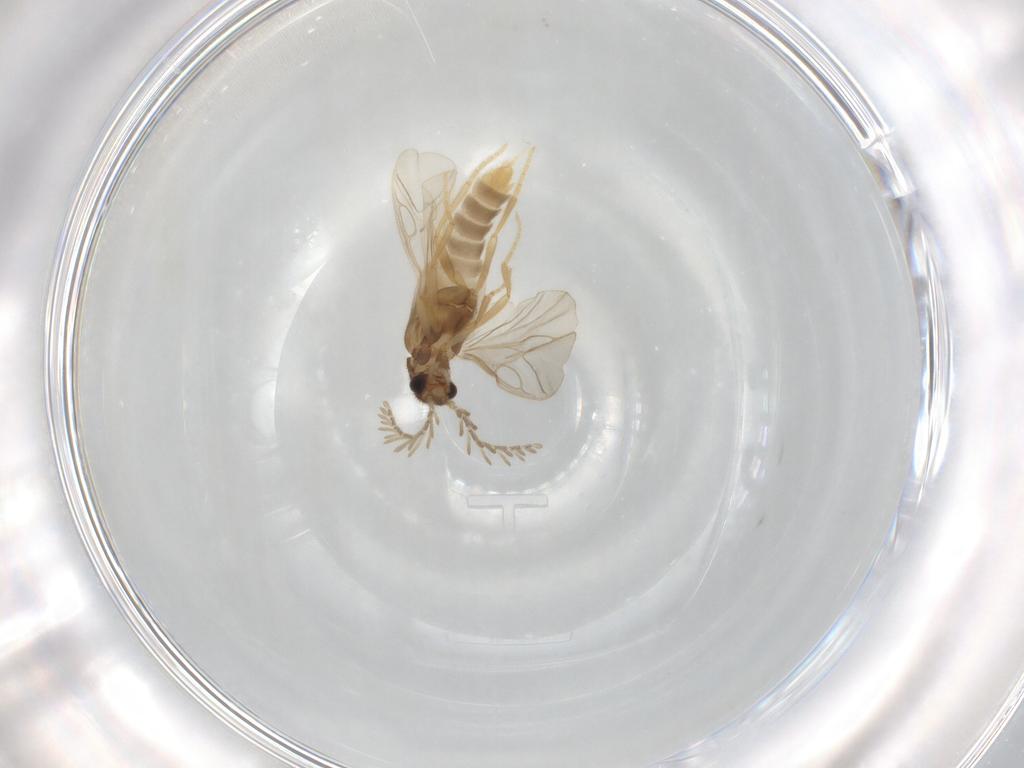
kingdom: Animalia
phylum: Arthropoda
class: Insecta
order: Coleoptera
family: Phengodidae
